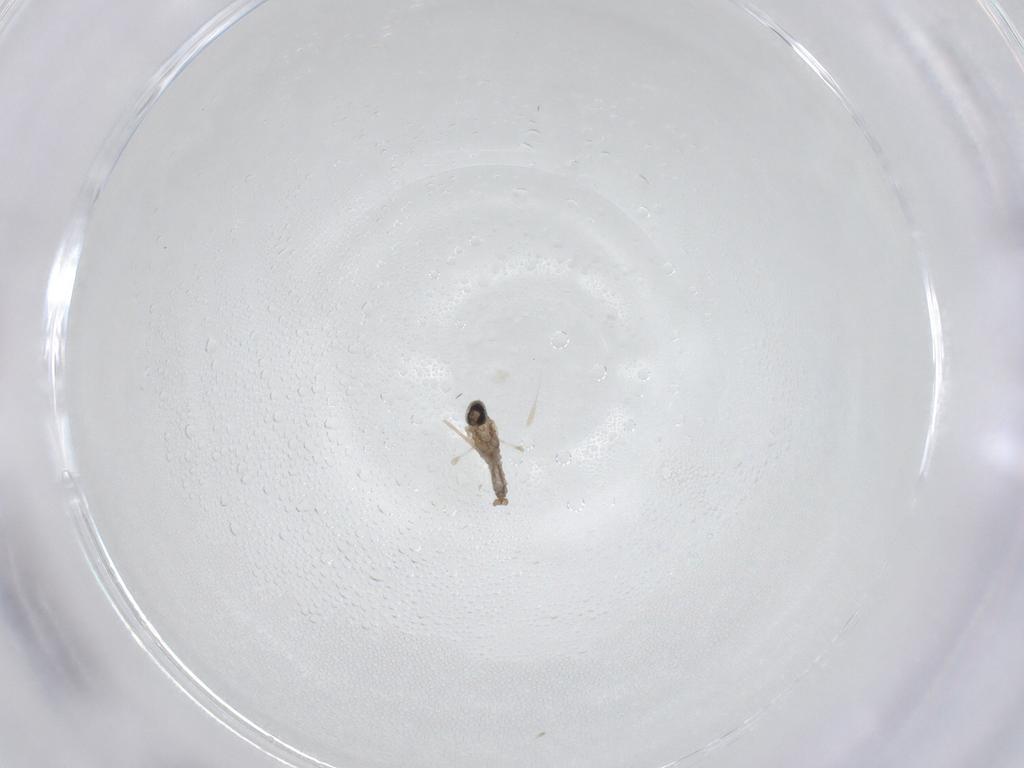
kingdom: Animalia
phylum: Arthropoda
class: Insecta
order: Diptera
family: Cecidomyiidae
